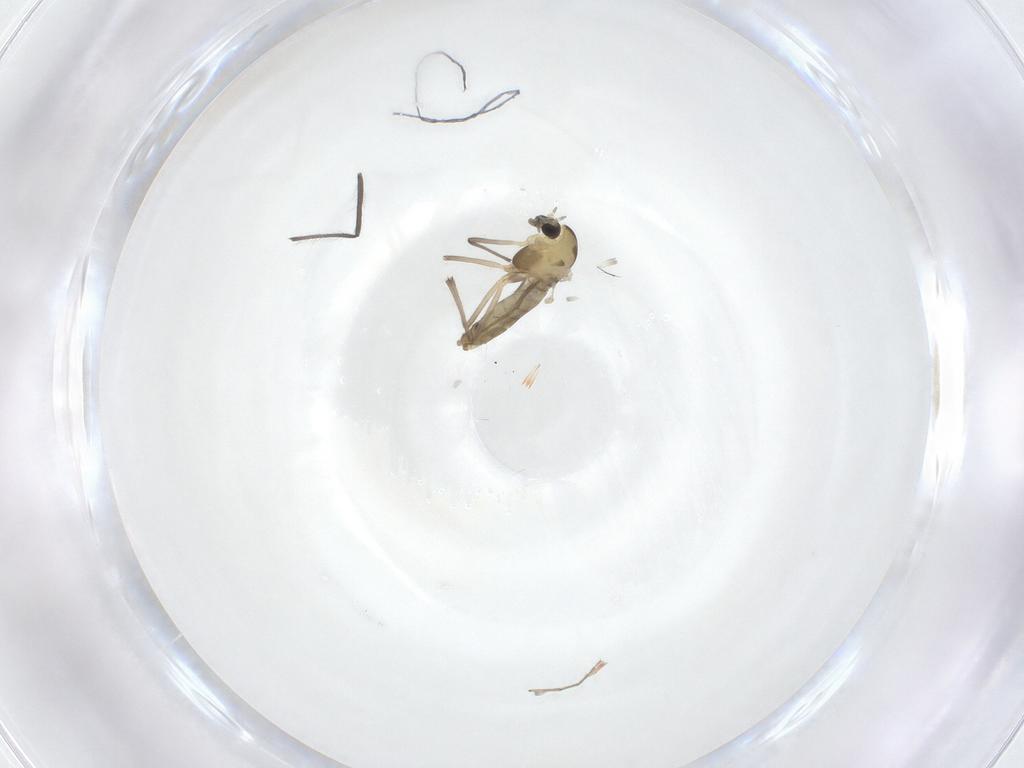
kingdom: Animalia
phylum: Arthropoda
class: Insecta
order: Diptera
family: Chironomidae
